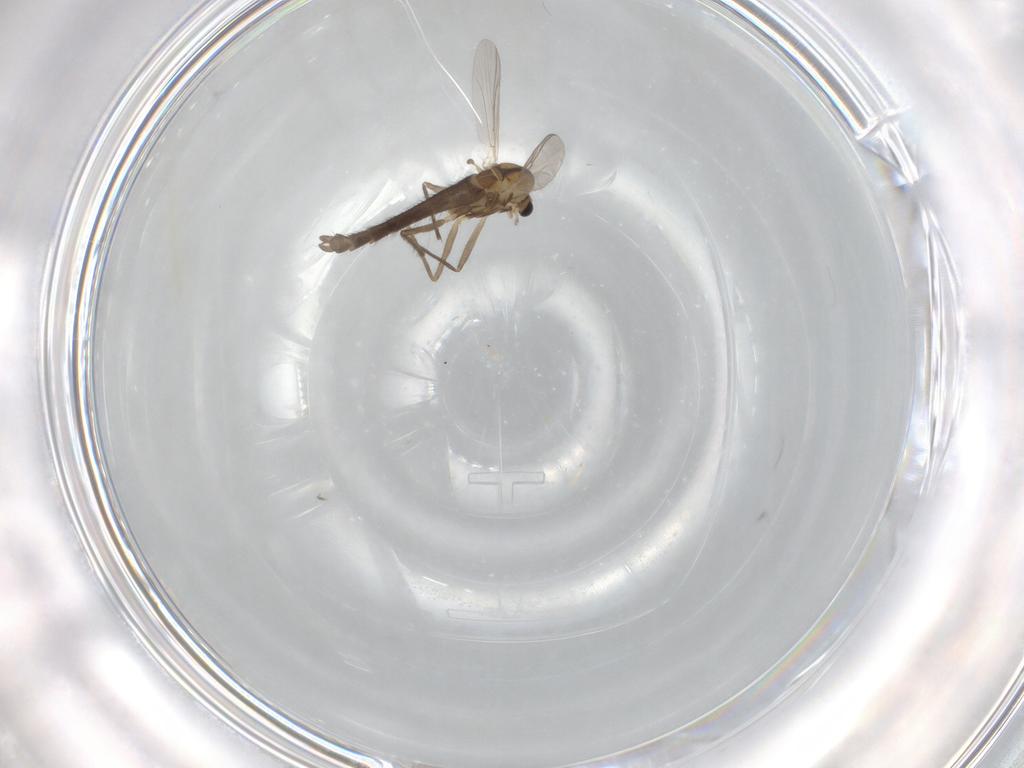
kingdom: Animalia
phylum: Arthropoda
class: Insecta
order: Diptera
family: Chironomidae
